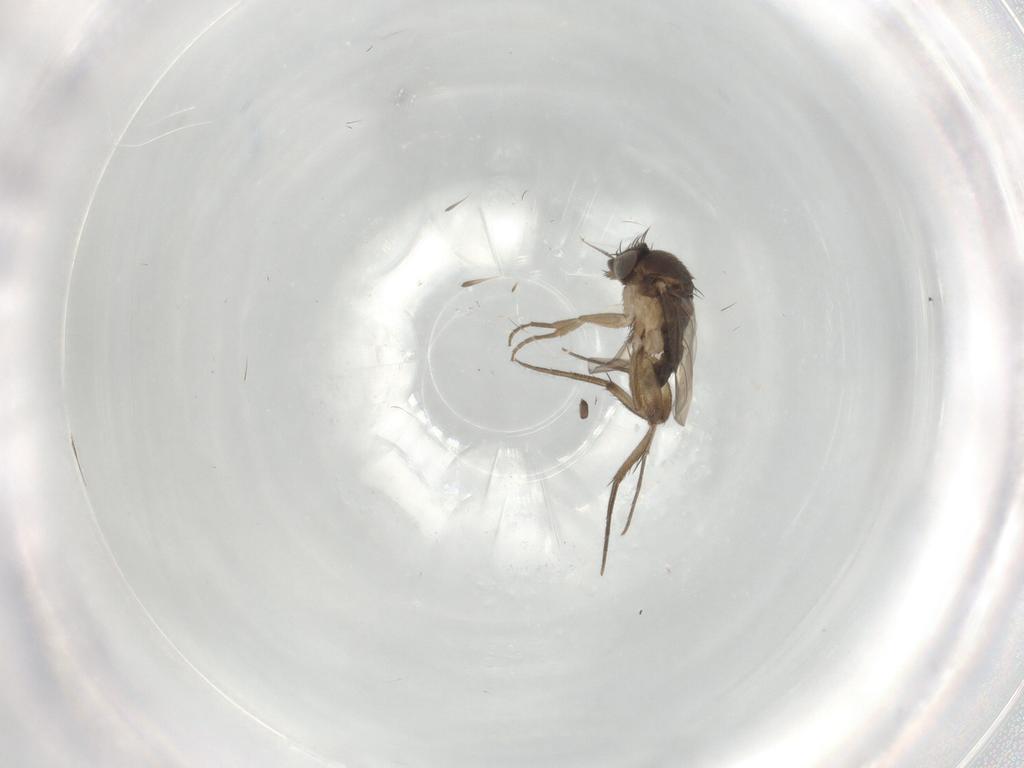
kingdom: Animalia
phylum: Arthropoda
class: Insecta
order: Diptera
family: Phoridae
